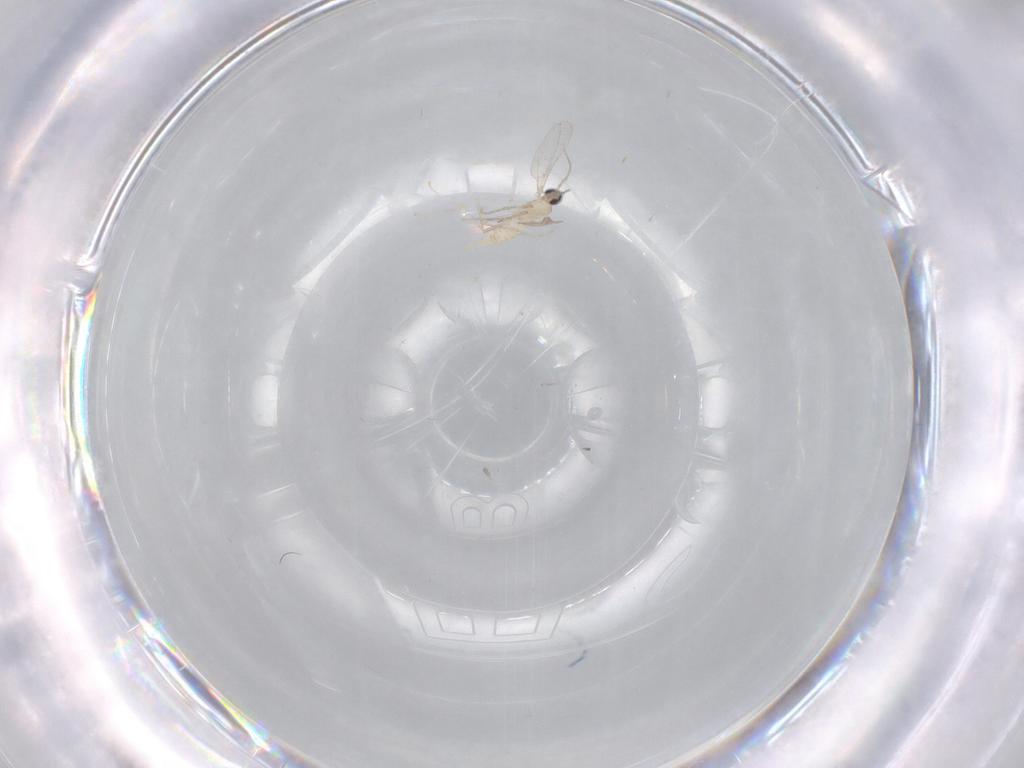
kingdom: Animalia
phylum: Arthropoda
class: Insecta
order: Diptera
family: Cecidomyiidae
